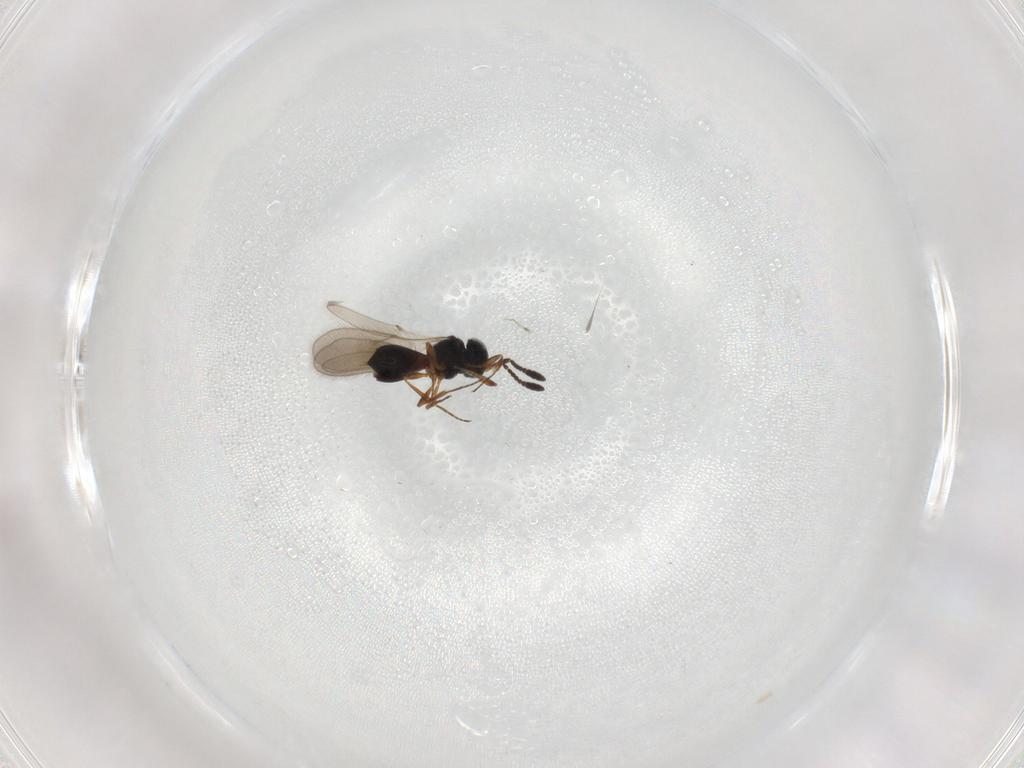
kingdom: Animalia
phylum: Arthropoda
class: Insecta
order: Hymenoptera
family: Scelionidae
